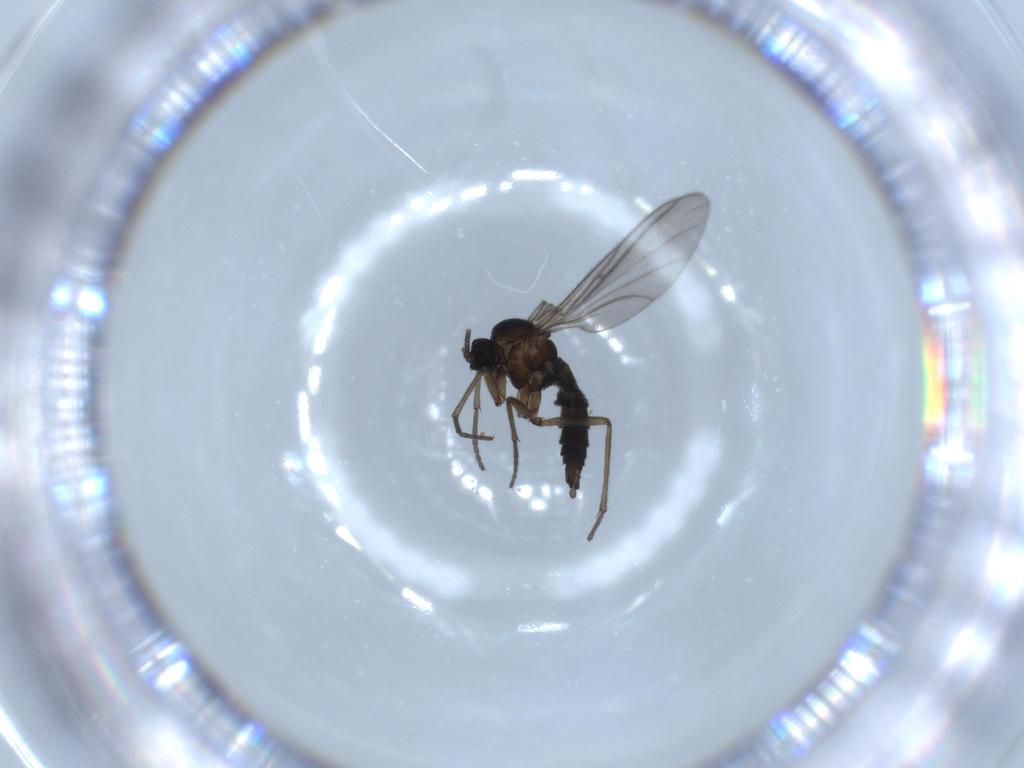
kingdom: Animalia
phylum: Arthropoda
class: Insecta
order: Diptera
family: Sciaridae
